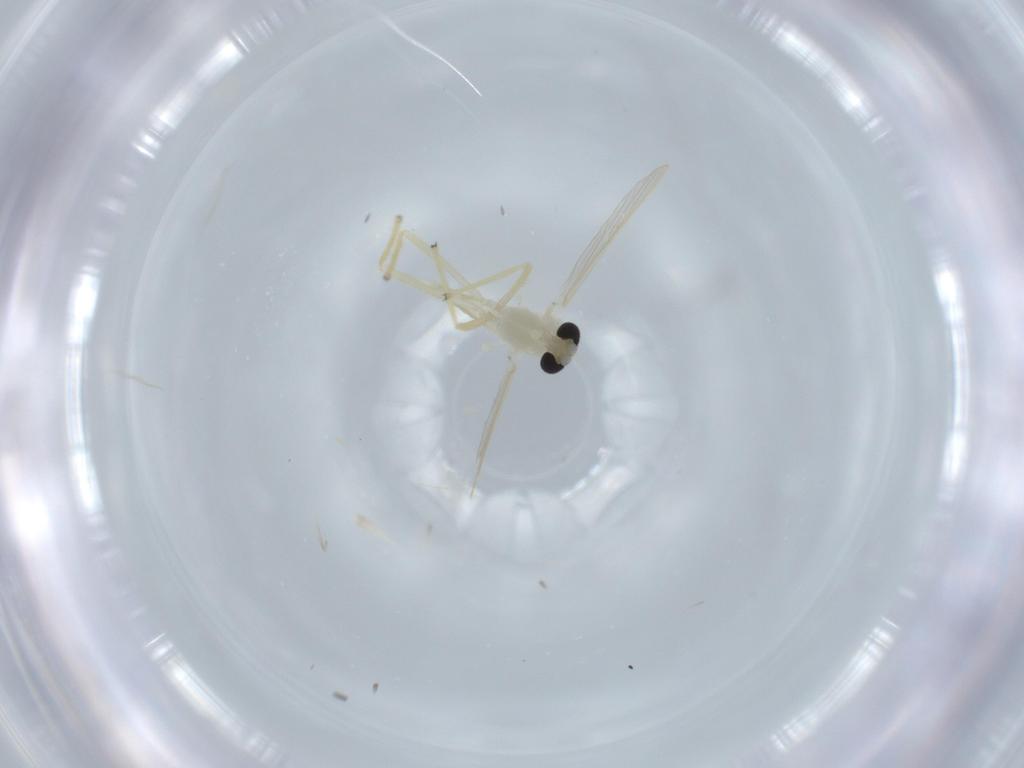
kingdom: Animalia
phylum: Arthropoda
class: Insecta
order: Diptera
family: Chironomidae
